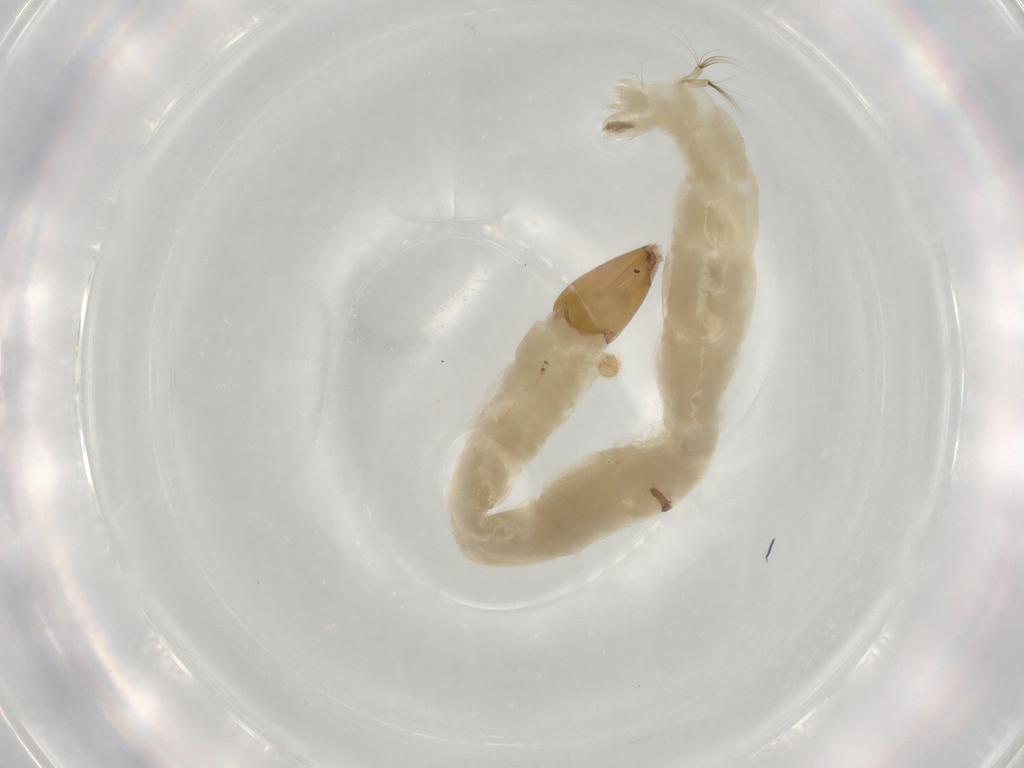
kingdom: Animalia
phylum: Arthropoda
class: Insecta
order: Diptera
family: Chironomidae
